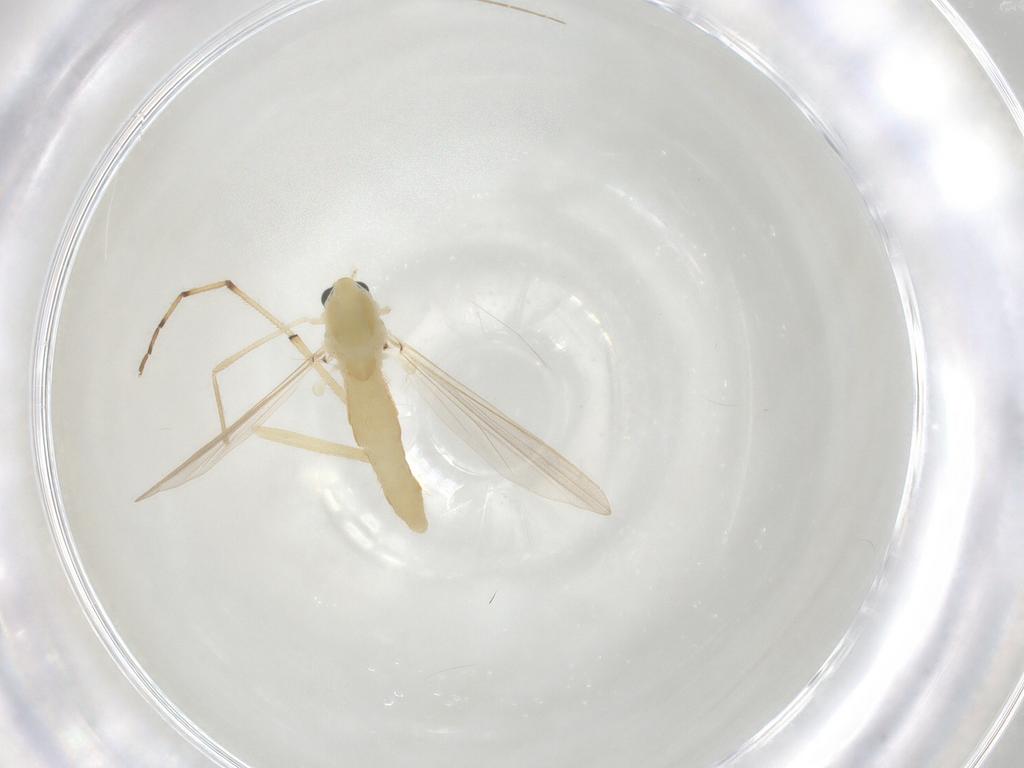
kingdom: Animalia
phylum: Arthropoda
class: Insecta
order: Diptera
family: Chironomidae
